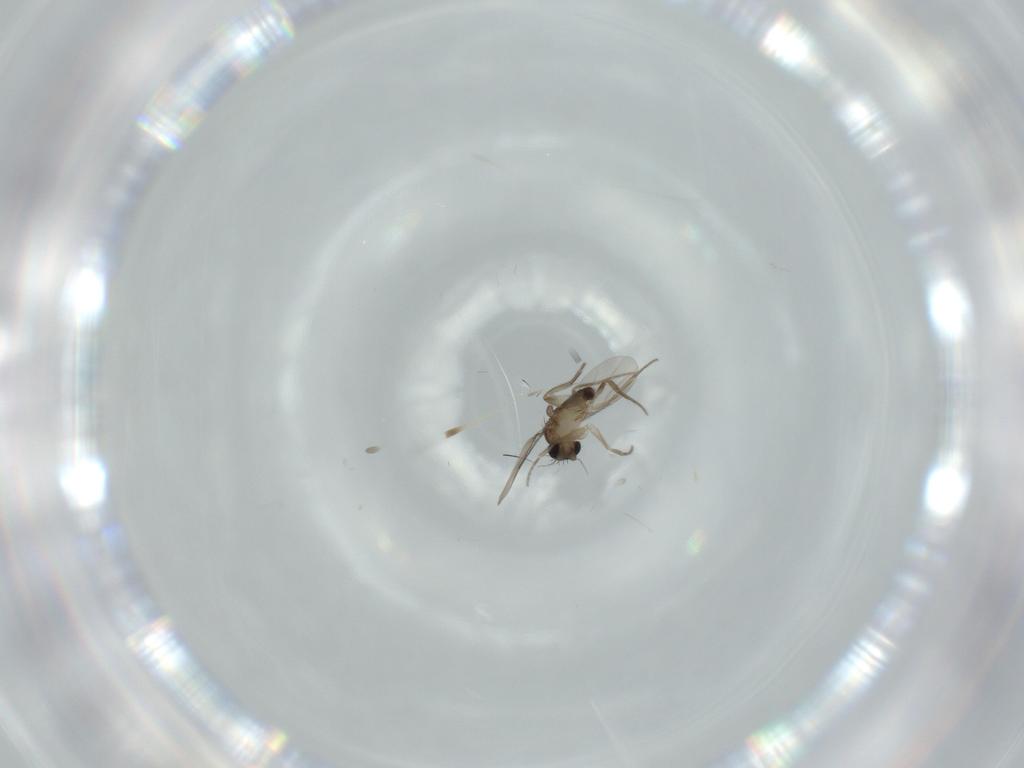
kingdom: Animalia
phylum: Arthropoda
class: Insecta
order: Diptera
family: Phoridae
